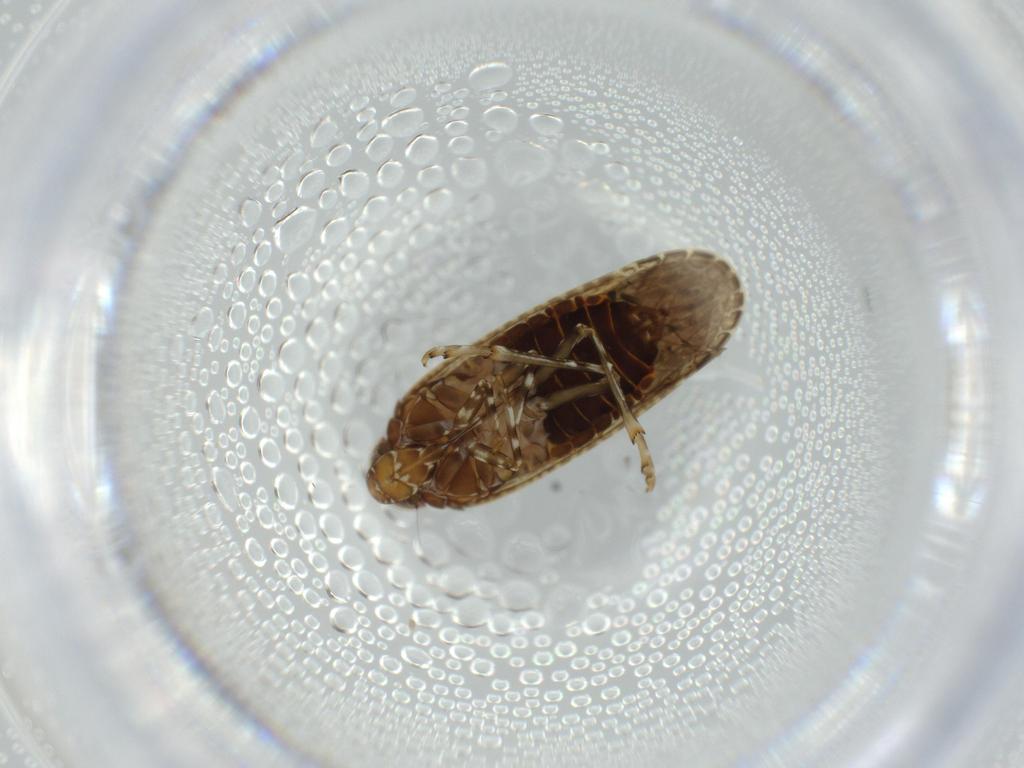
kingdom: Animalia
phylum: Arthropoda
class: Insecta
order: Hemiptera
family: Achilidae
